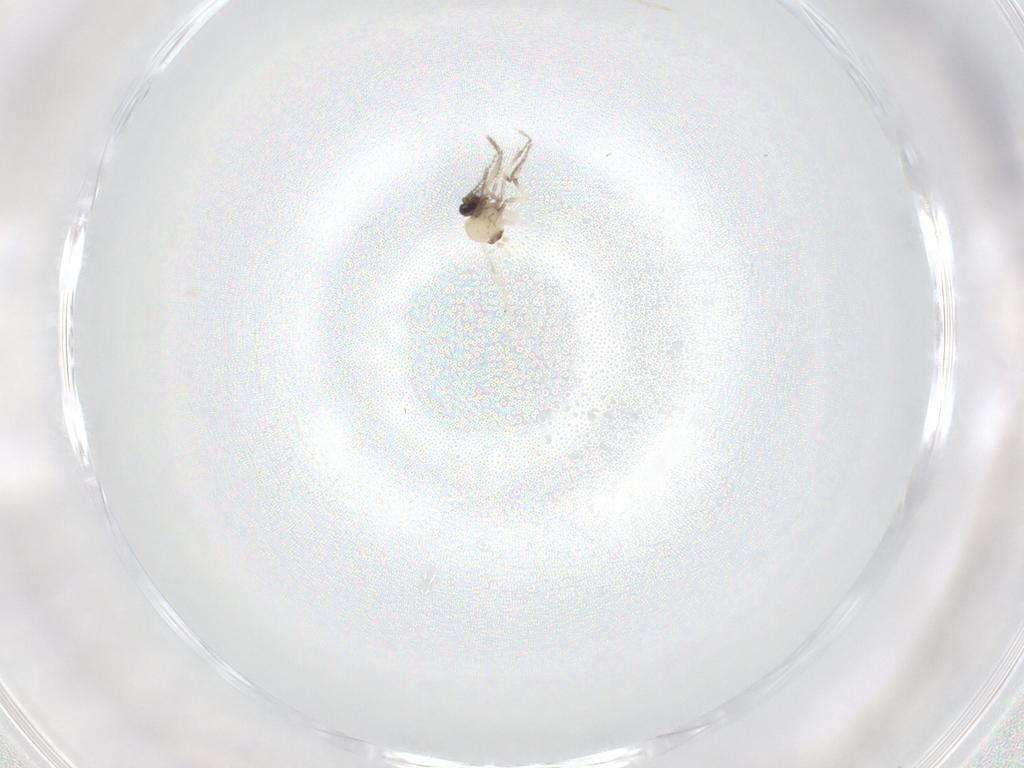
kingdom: Animalia
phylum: Arthropoda
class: Insecta
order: Diptera
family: Ceratopogonidae
